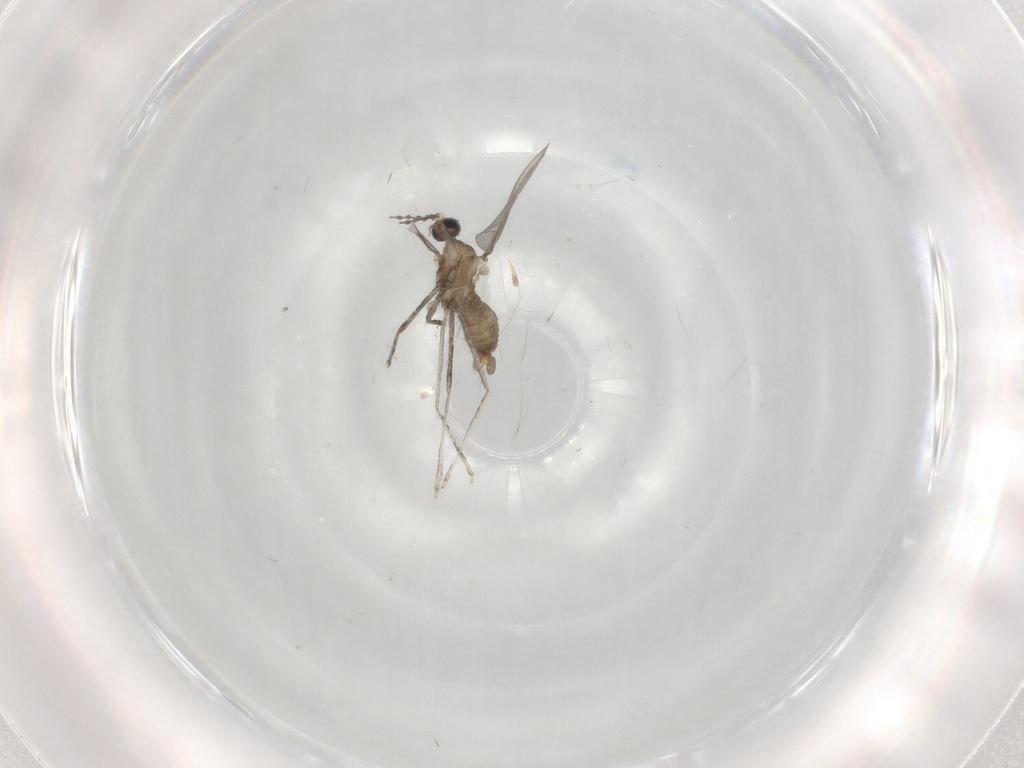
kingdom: Animalia
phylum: Arthropoda
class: Insecta
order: Diptera
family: Cecidomyiidae
